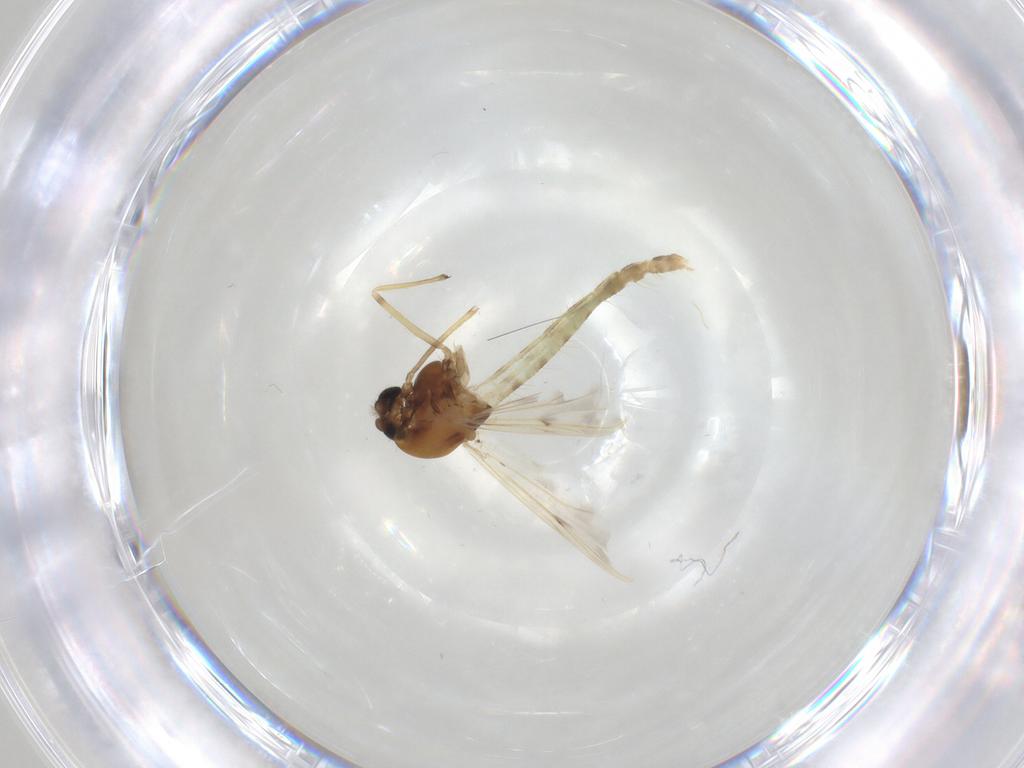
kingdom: Animalia
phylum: Arthropoda
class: Insecta
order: Diptera
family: Chironomidae
